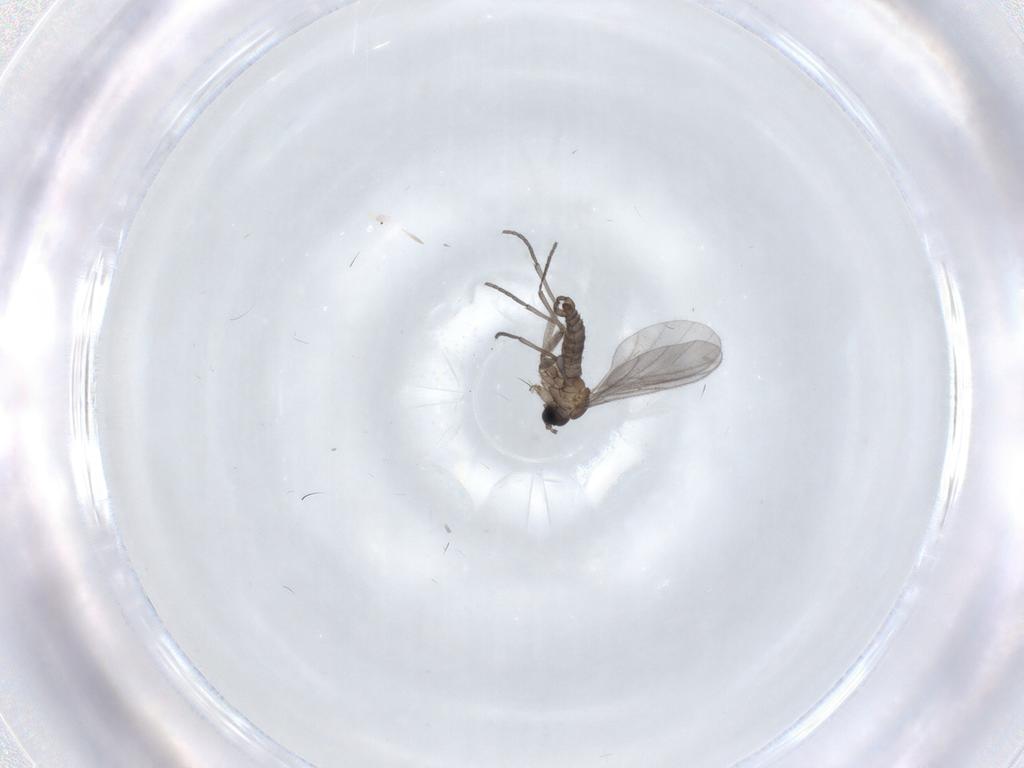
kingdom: Animalia
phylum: Arthropoda
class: Insecta
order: Diptera
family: Sciaridae
